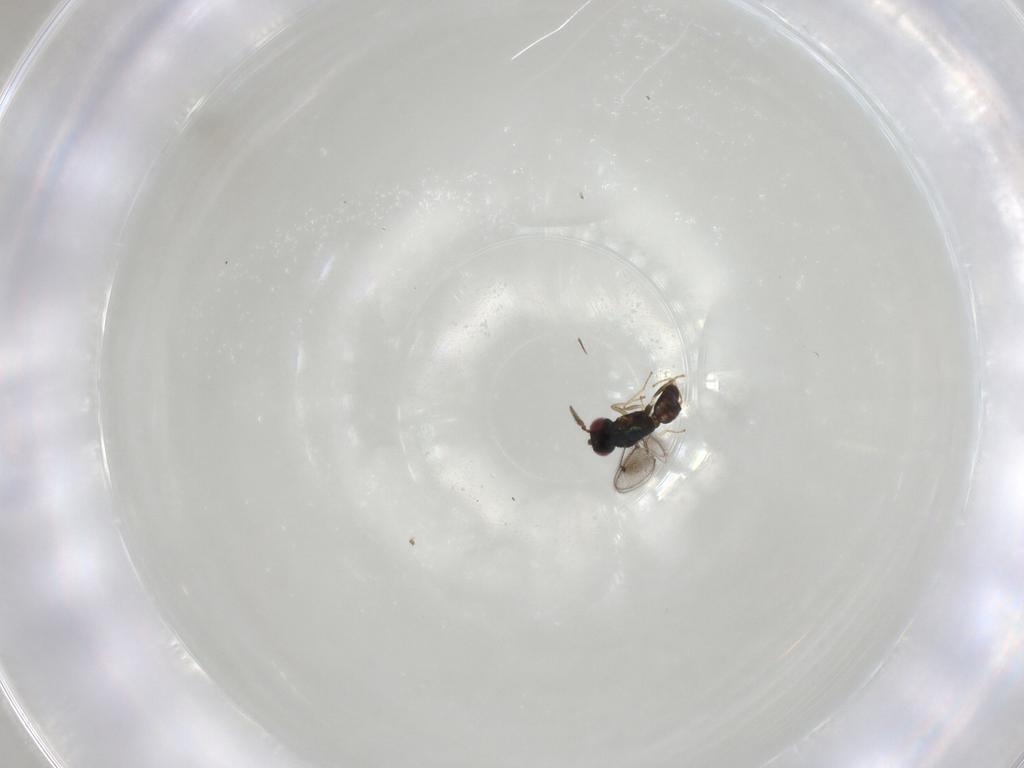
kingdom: Animalia
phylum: Arthropoda
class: Insecta
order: Hymenoptera
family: Eulophidae
